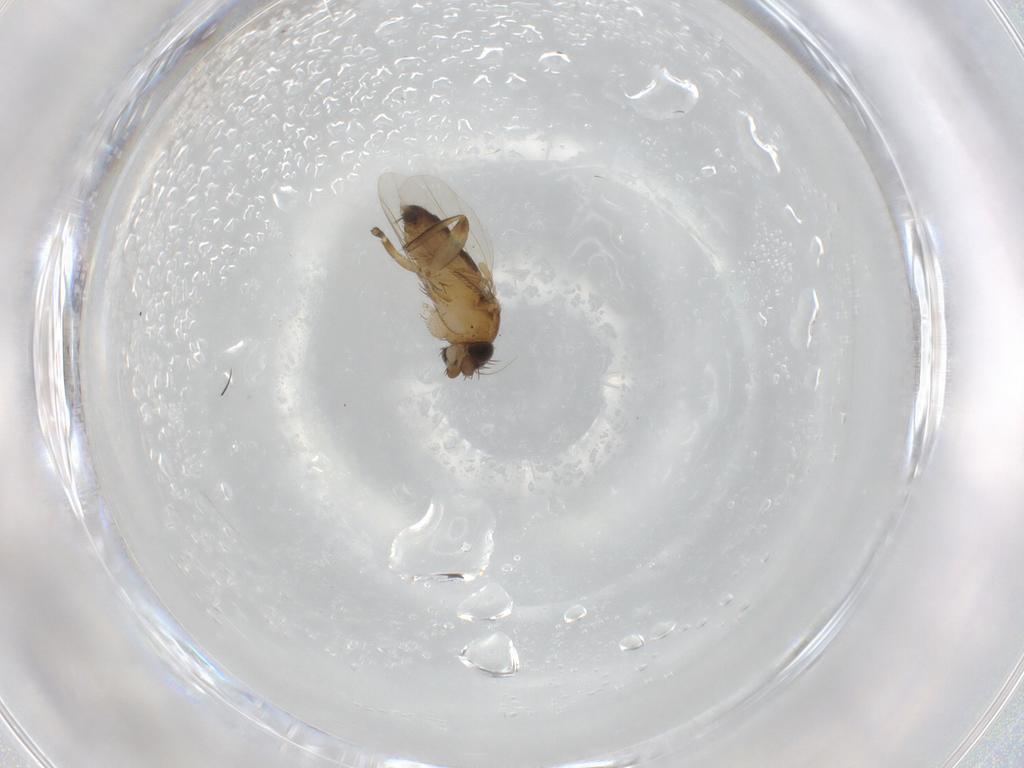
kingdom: Animalia
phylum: Arthropoda
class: Insecta
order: Diptera
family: Phoridae
